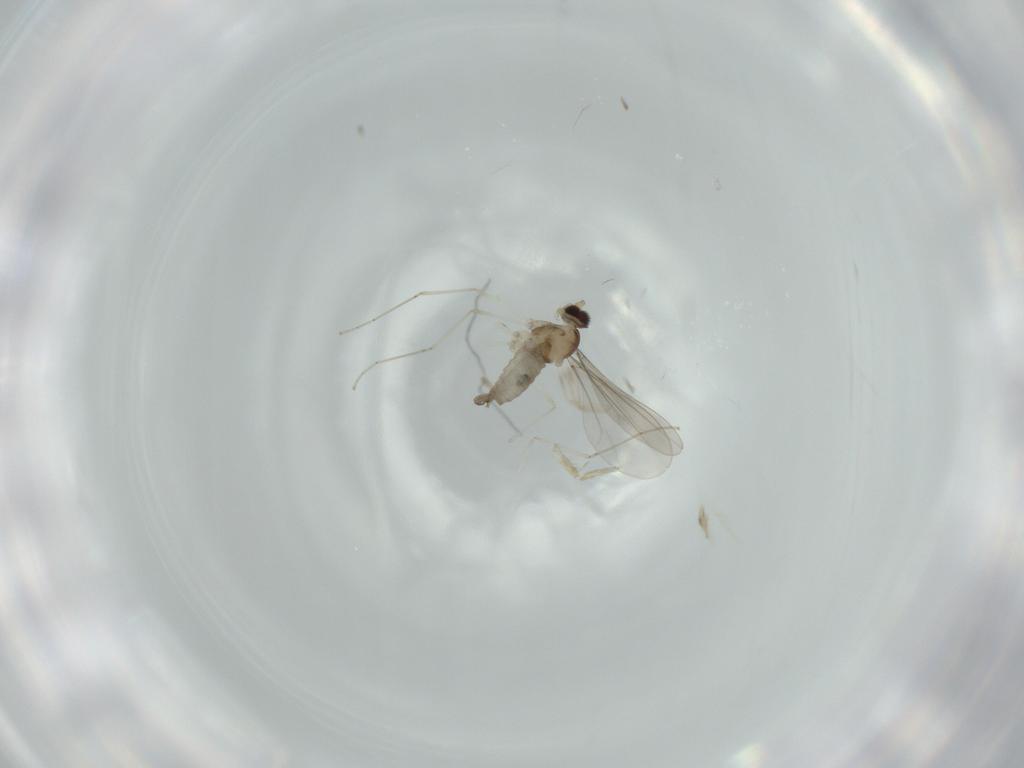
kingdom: Animalia
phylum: Arthropoda
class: Insecta
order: Diptera
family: Cecidomyiidae
